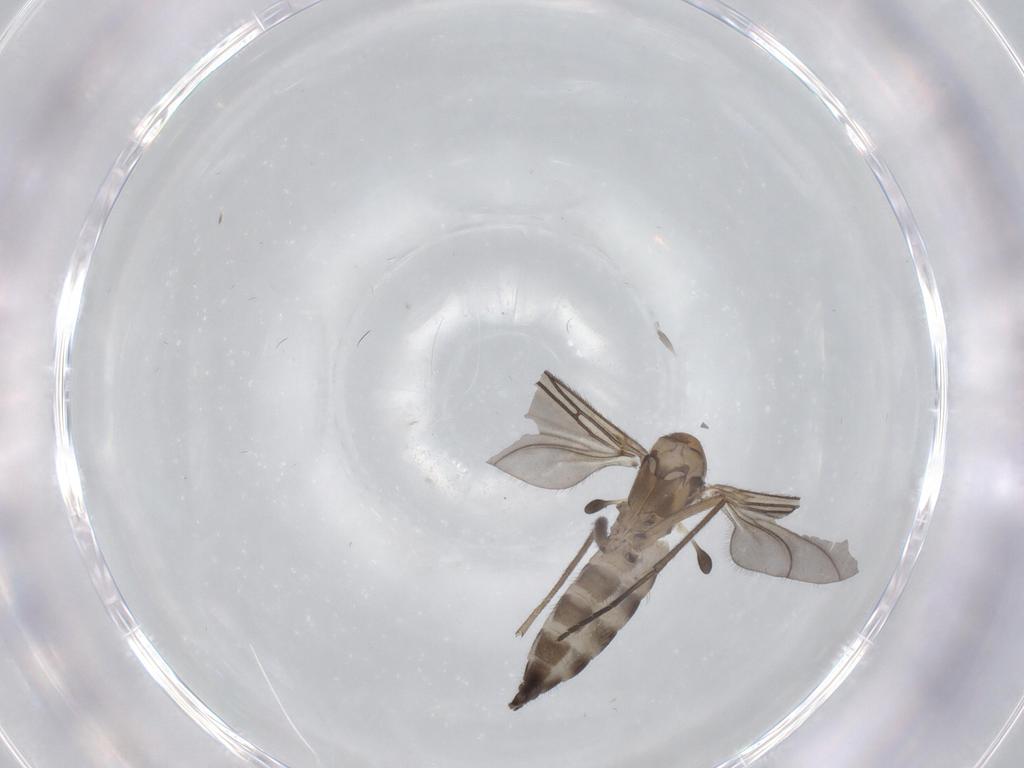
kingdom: Animalia
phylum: Arthropoda
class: Insecta
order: Diptera
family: Sciaridae
